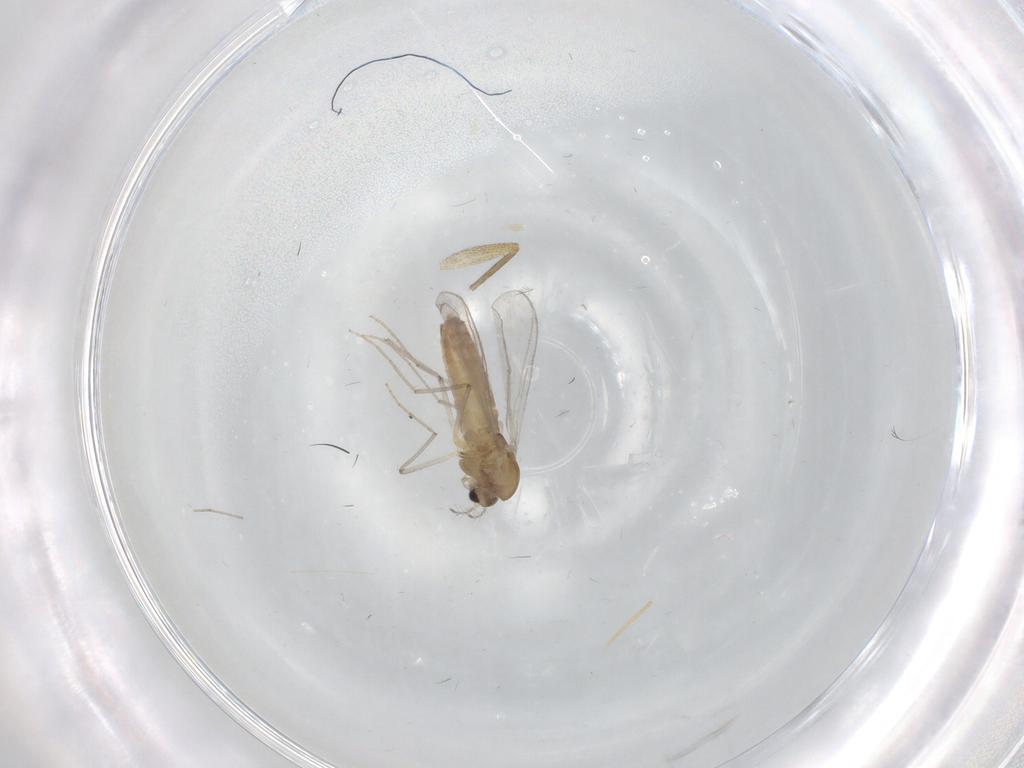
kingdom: Animalia
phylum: Arthropoda
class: Insecta
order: Diptera
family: Chironomidae
